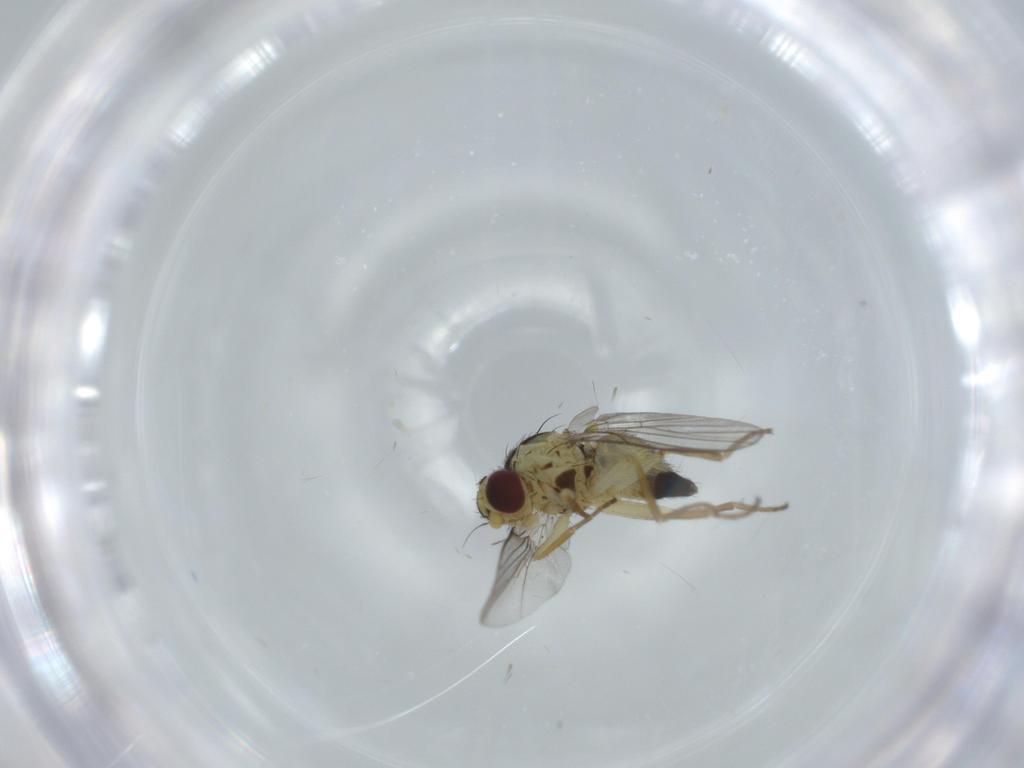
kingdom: Animalia
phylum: Arthropoda
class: Insecta
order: Diptera
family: Agromyzidae
